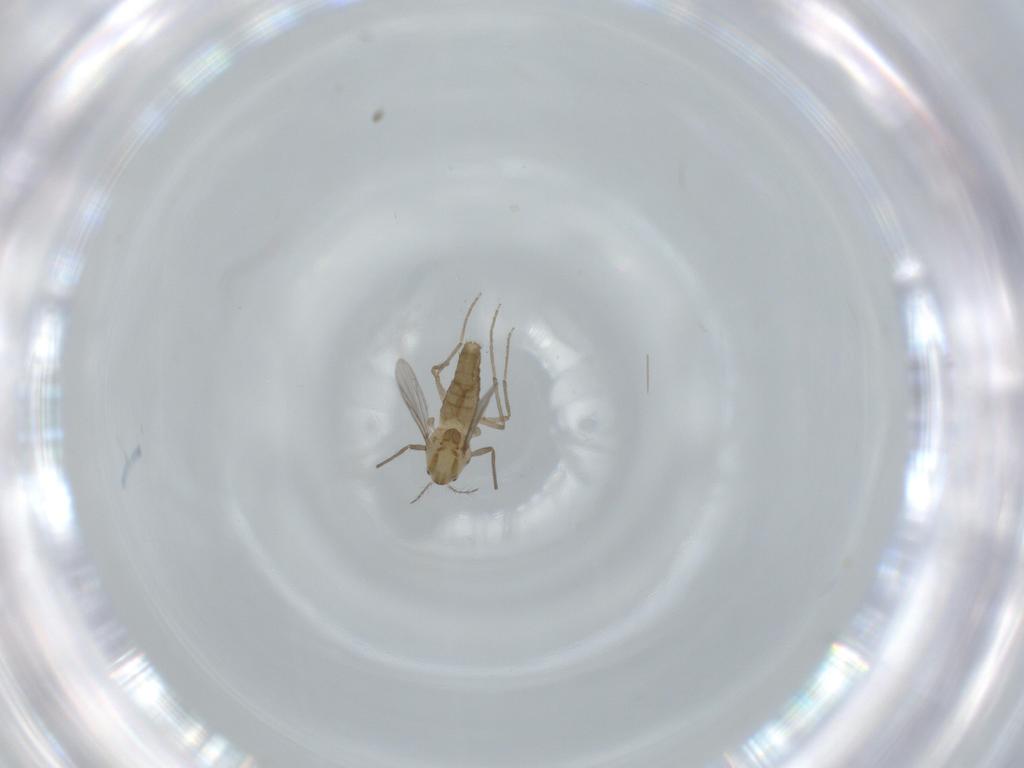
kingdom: Animalia
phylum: Arthropoda
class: Insecta
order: Diptera
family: Chironomidae
